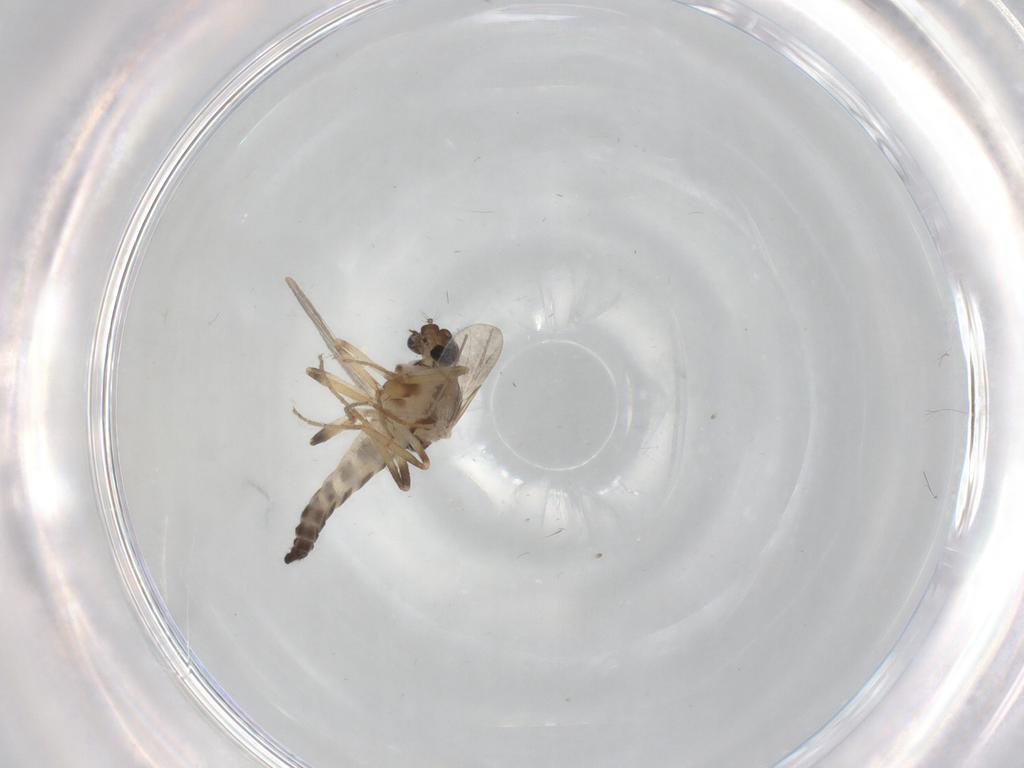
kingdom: Animalia
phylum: Arthropoda
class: Insecta
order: Diptera
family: Ceratopogonidae
